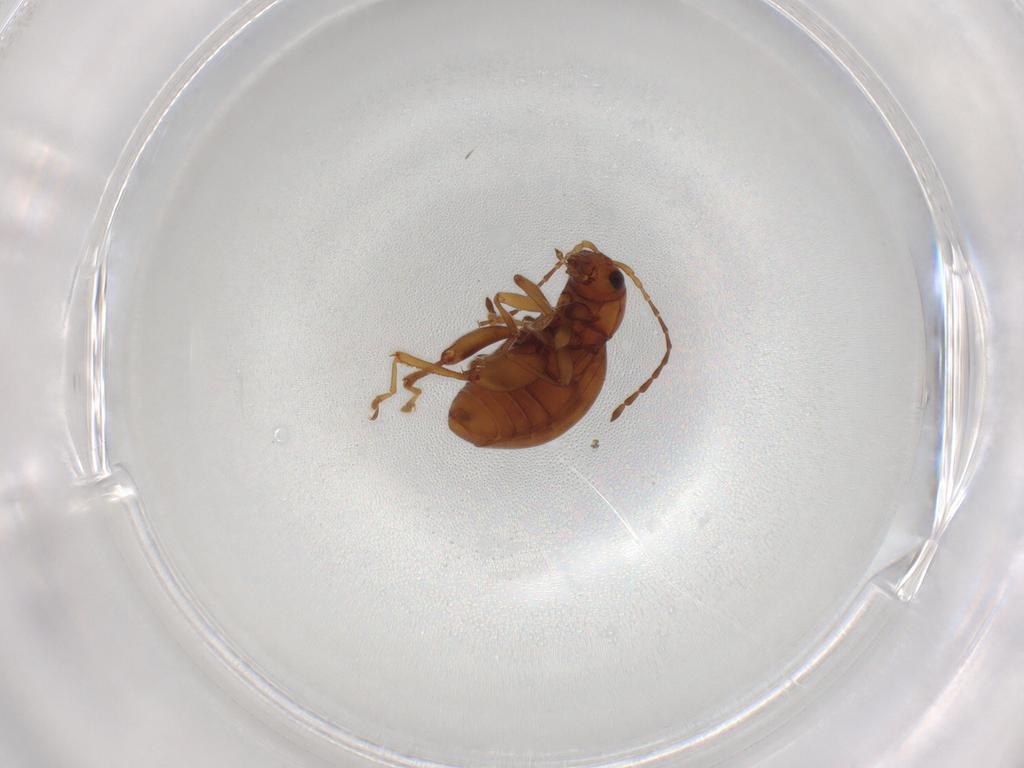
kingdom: Animalia
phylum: Arthropoda
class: Insecta
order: Coleoptera
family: Chrysomelidae
